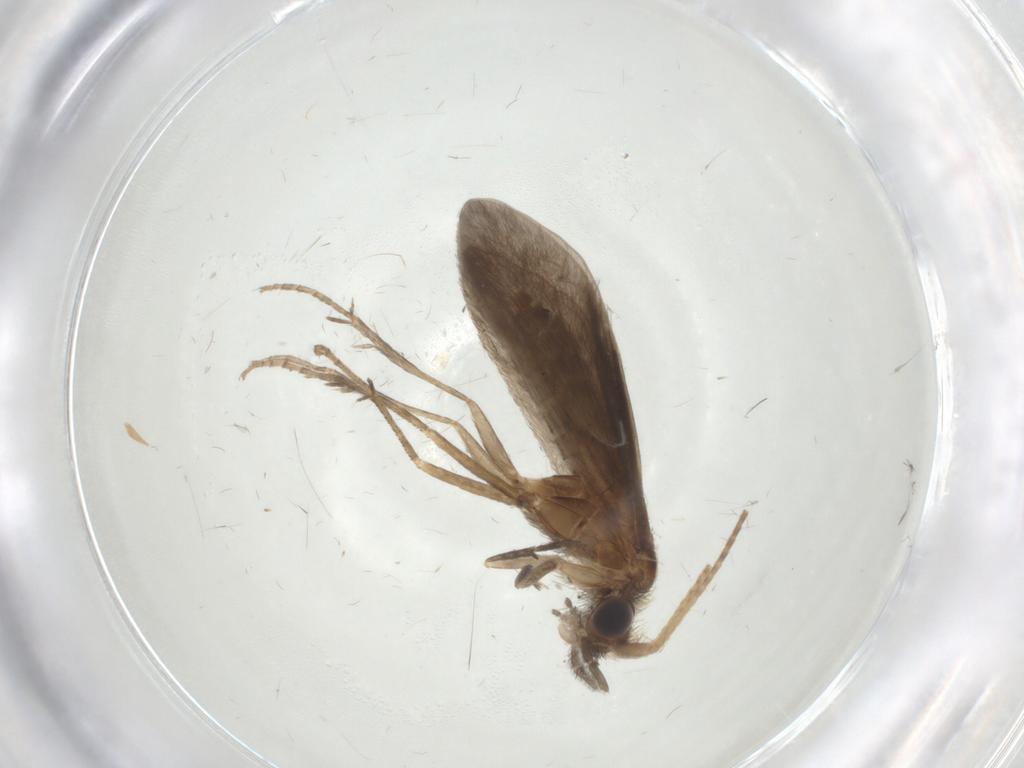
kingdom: Animalia
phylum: Arthropoda
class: Insecta
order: Trichoptera
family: Helicopsychidae
